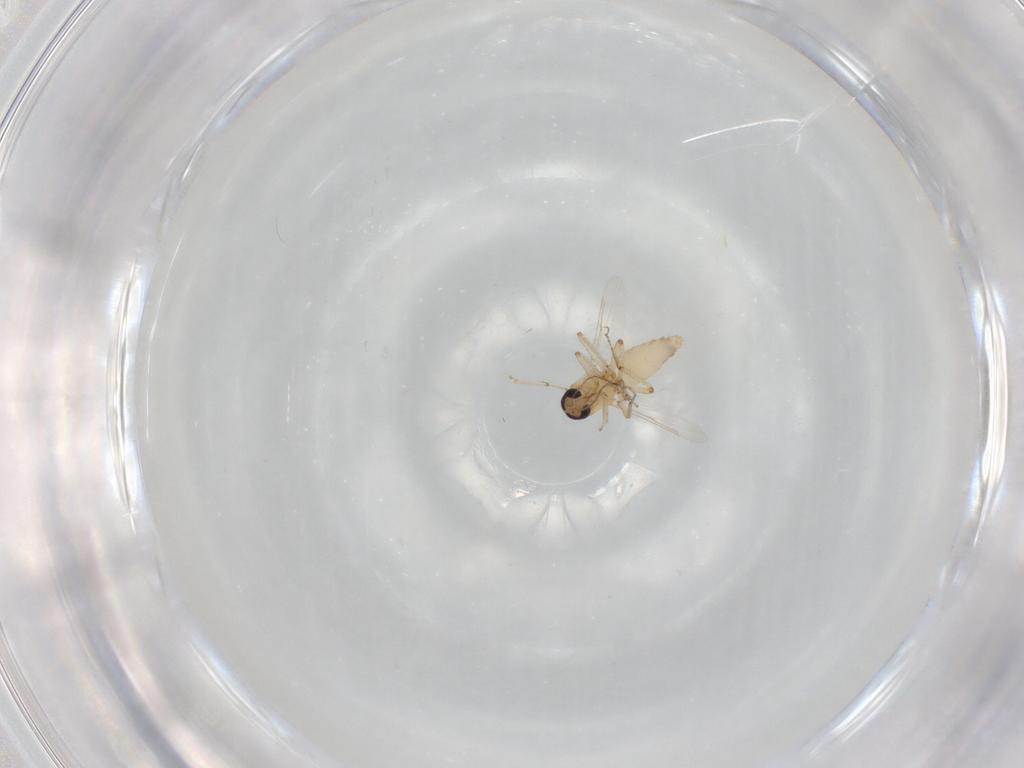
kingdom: Animalia
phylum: Arthropoda
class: Insecta
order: Diptera
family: Ceratopogonidae
